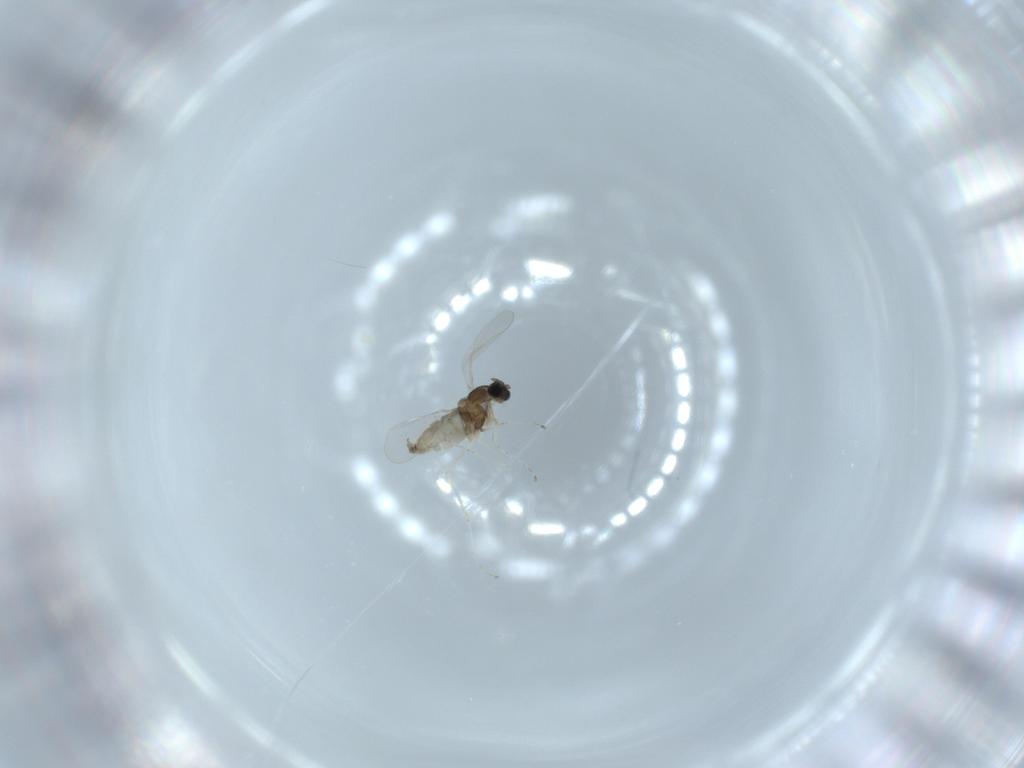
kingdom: Animalia
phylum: Arthropoda
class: Insecta
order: Diptera
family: Cecidomyiidae
